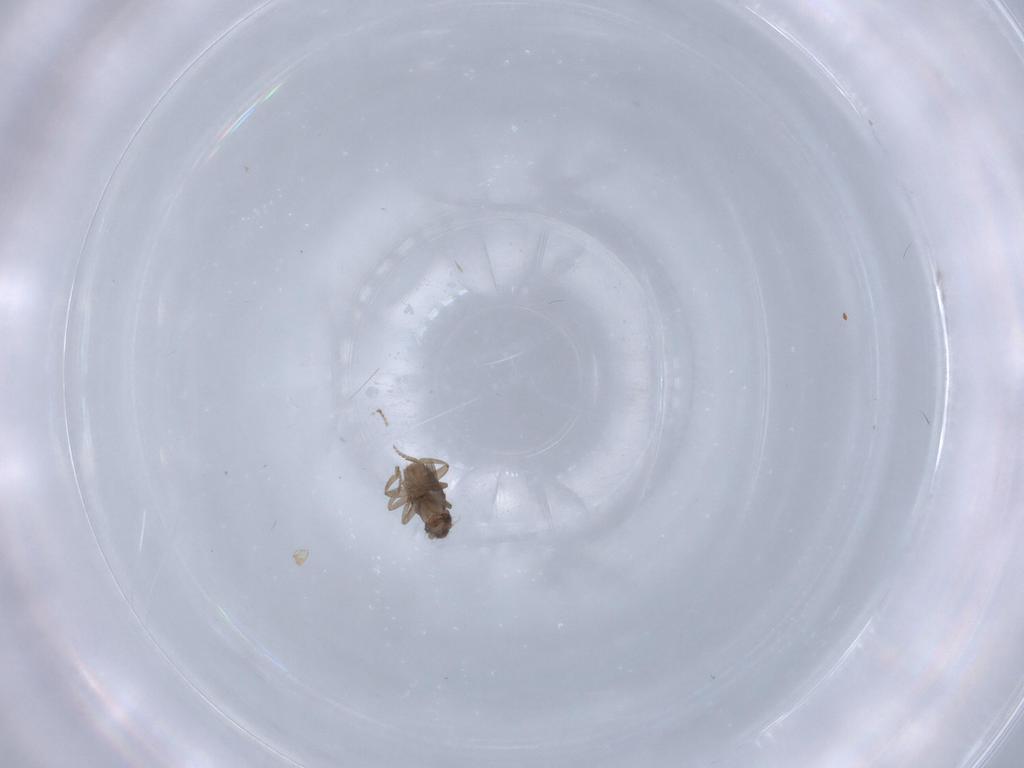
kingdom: Animalia
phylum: Arthropoda
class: Insecta
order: Diptera
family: Phoridae
